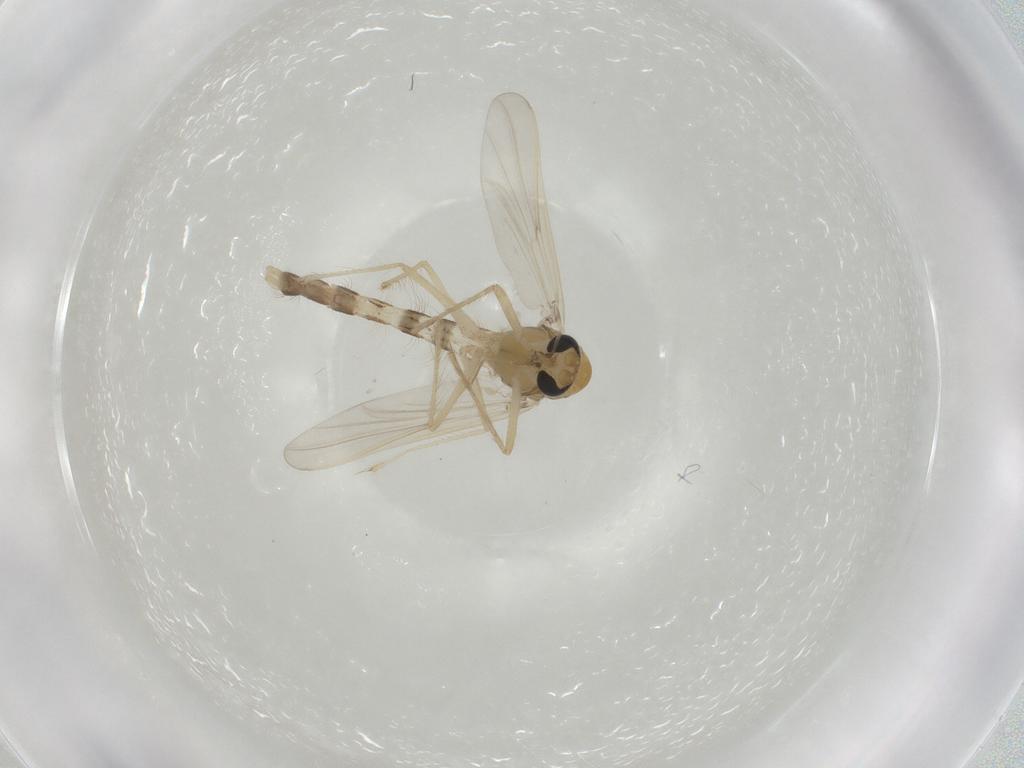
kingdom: Animalia
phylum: Arthropoda
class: Insecta
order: Diptera
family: Chironomidae
